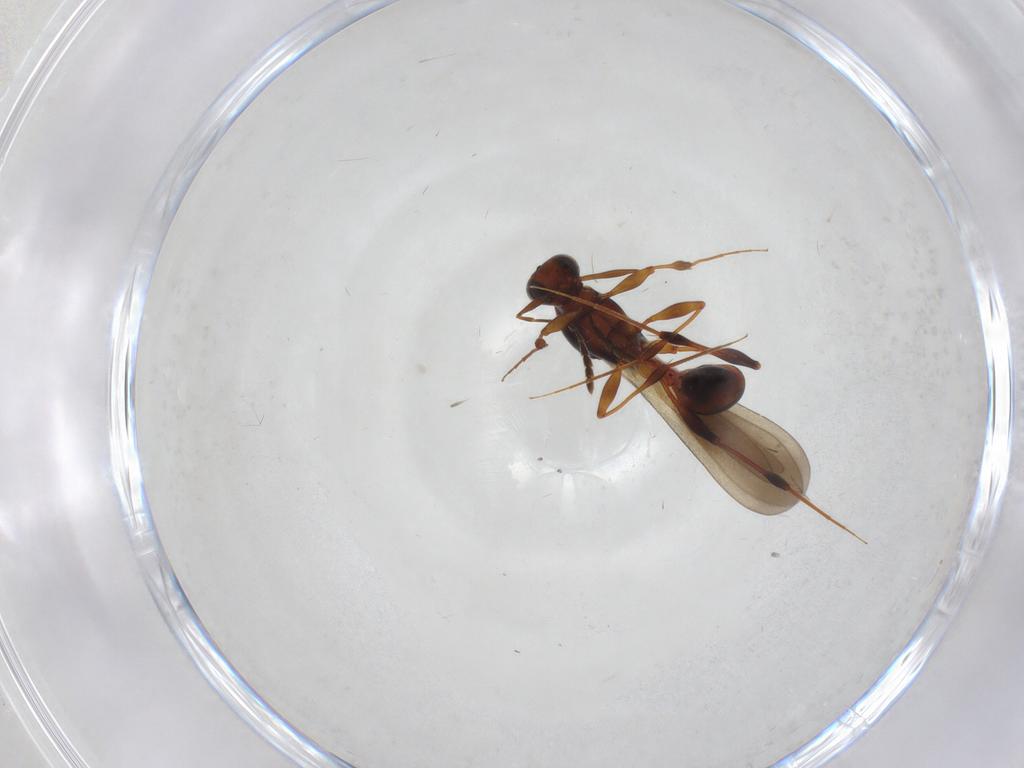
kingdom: Animalia
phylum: Arthropoda
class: Insecta
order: Hymenoptera
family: Platygastridae
